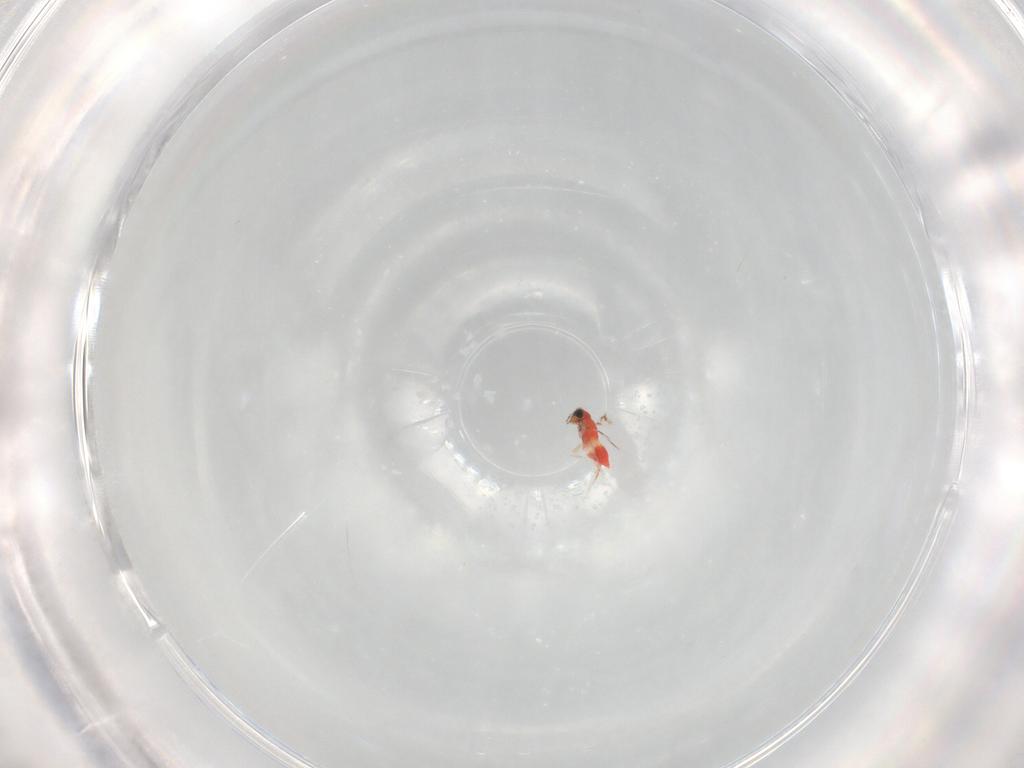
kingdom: Animalia
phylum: Arthropoda
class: Insecta
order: Hymenoptera
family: Trichogrammatidae
